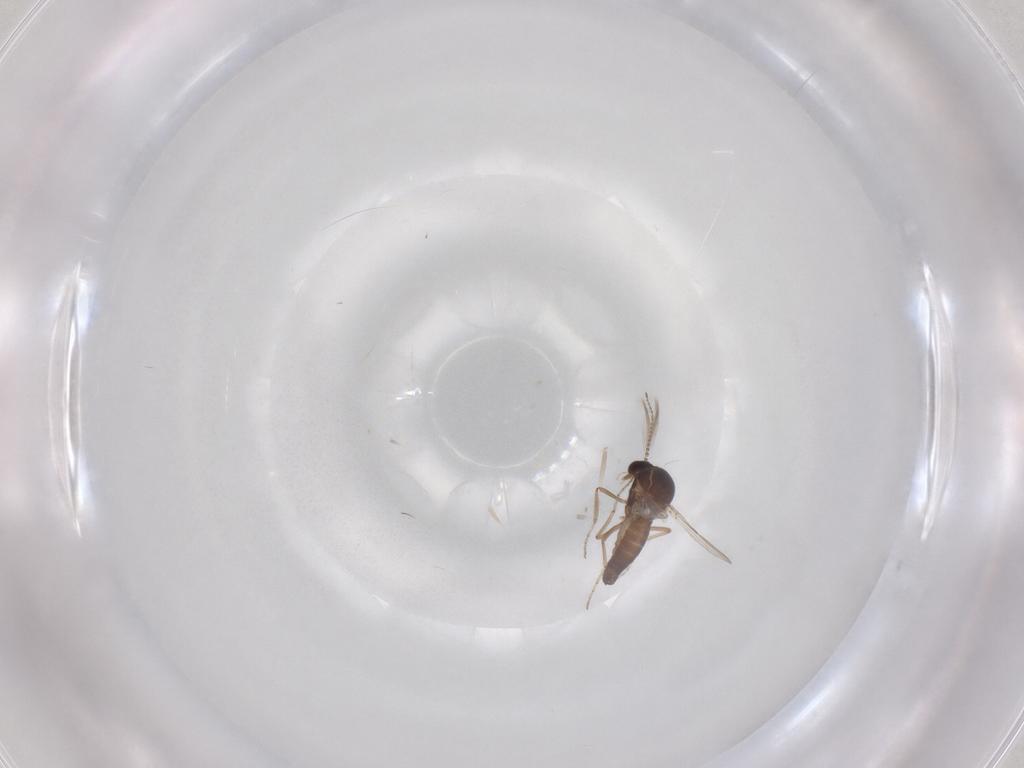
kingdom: Animalia
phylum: Arthropoda
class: Insecta
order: Diptera
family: Ceratopogonidae
